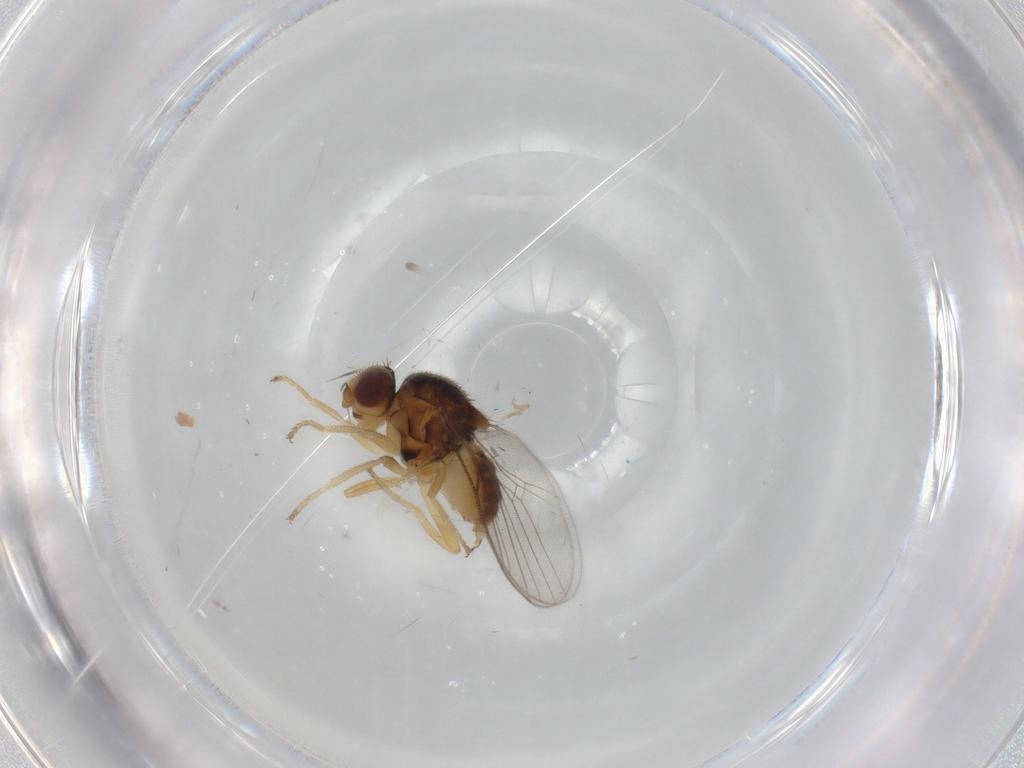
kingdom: Animalia
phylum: Arthropoda
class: Insecta
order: Diptera
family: Chloropidae
